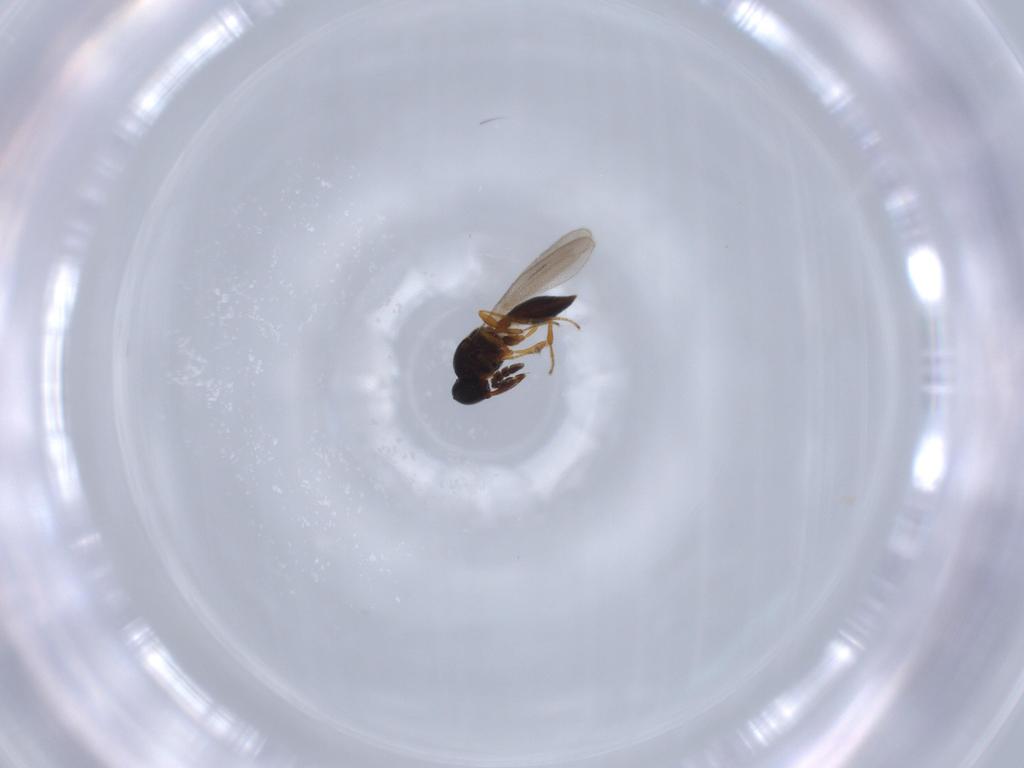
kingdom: Animalia
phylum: Arthropoda
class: Insecta
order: Hymenoptera
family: Platygastridae
